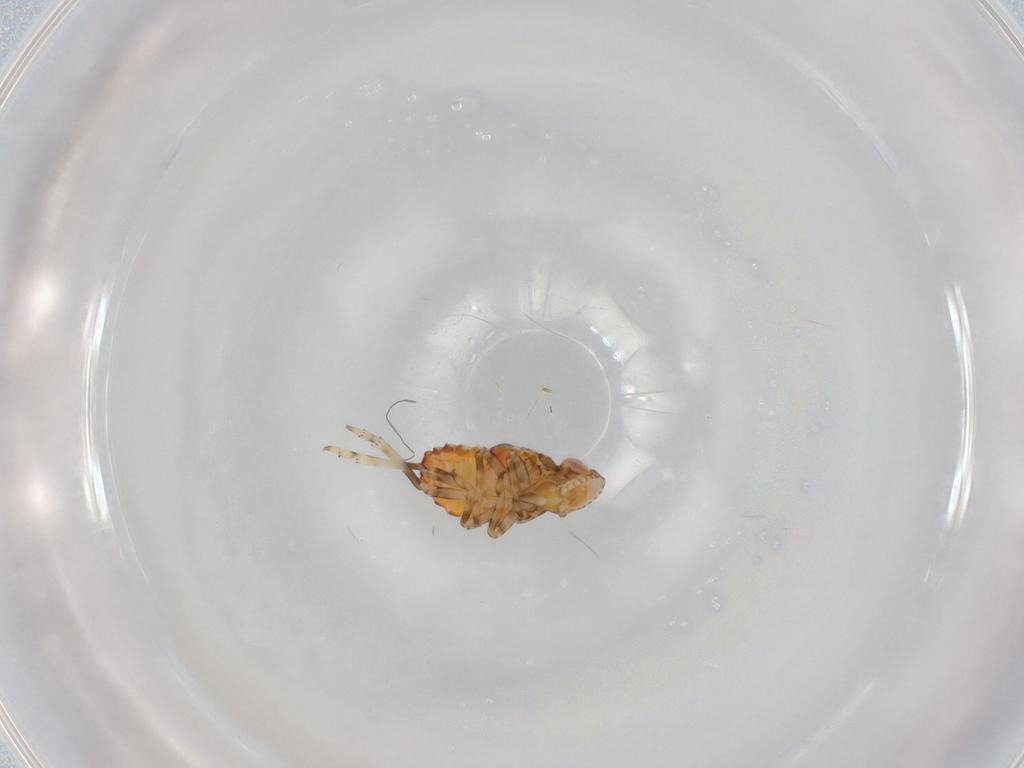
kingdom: Animalia
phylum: Arthropoda
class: Insecta
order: Hemiptera
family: Tropiduchidae
